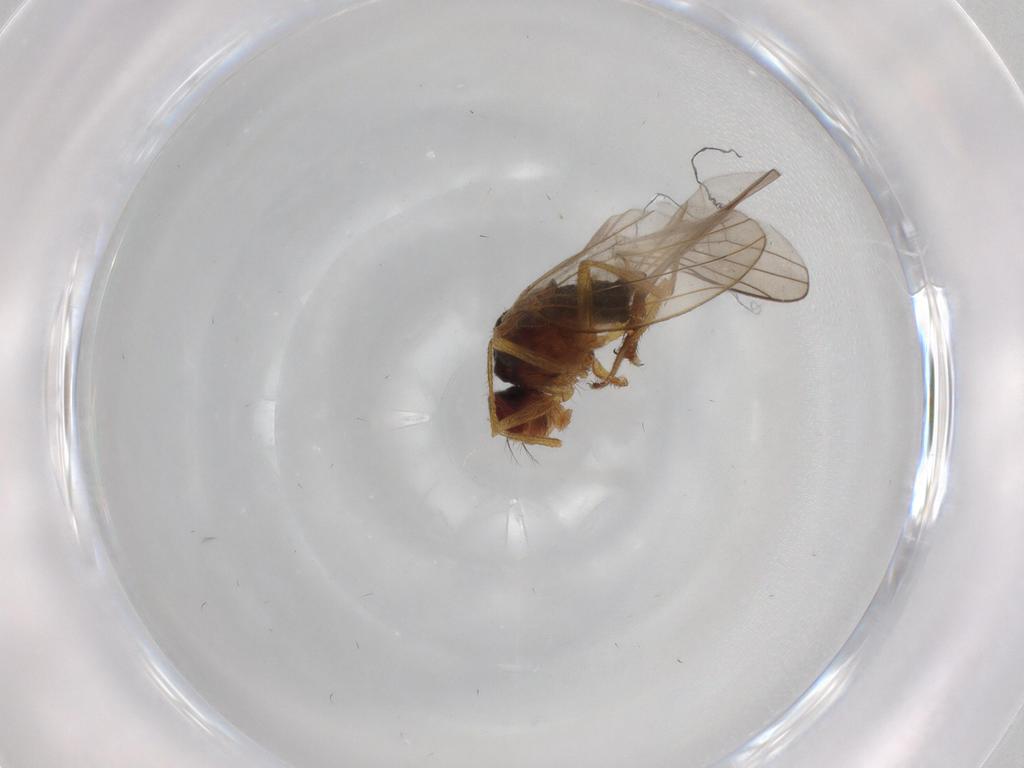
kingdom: Animalia
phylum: Arthropoda
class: Insecta
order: Diptera
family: Drosophilidae
